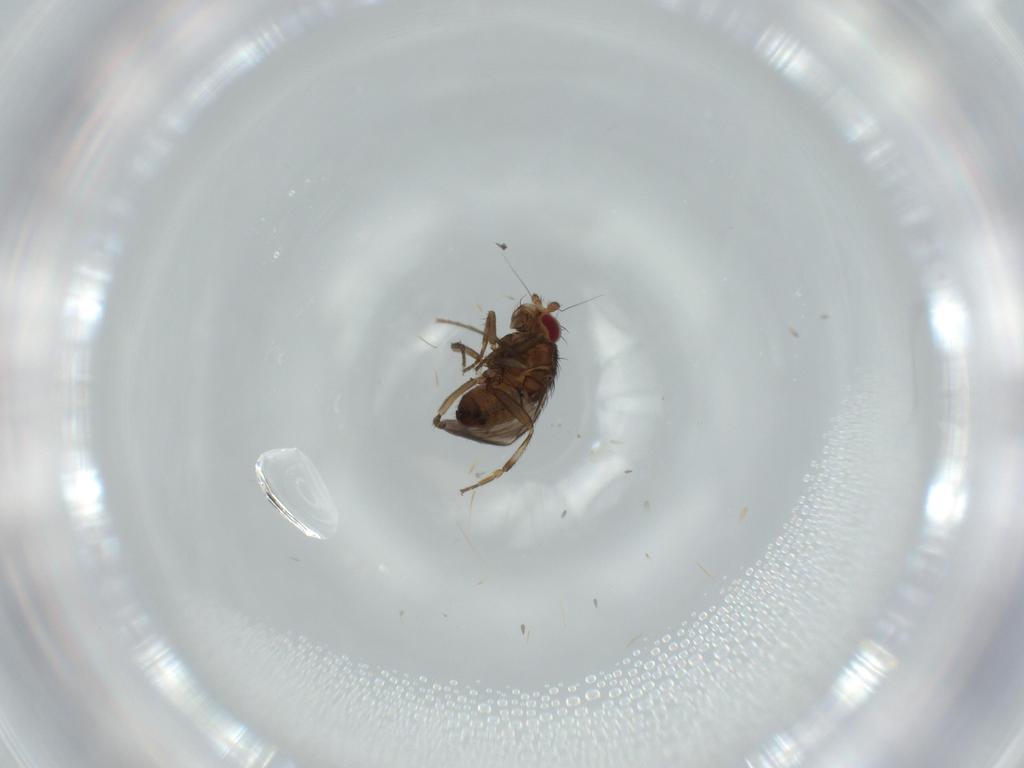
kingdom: Animalia
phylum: Arthropoda
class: Insecta
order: Diptera
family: Sphaeroceridae
